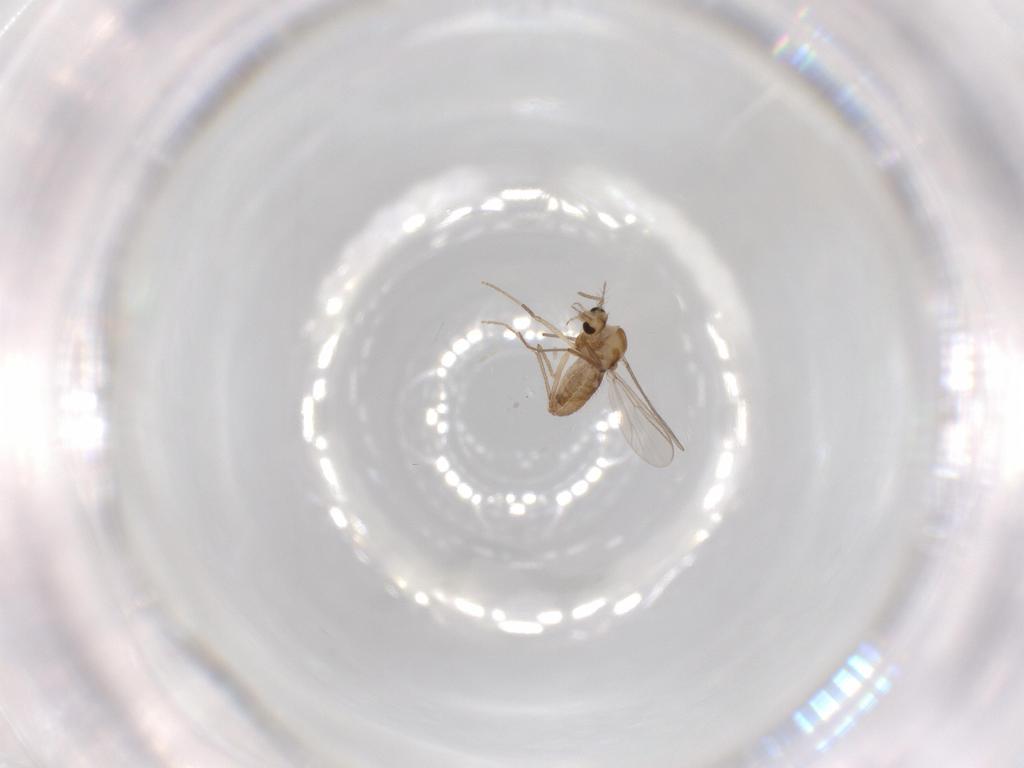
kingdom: Animalia
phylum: Arthropoda
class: Insecta
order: Diptera
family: Chironomidae
